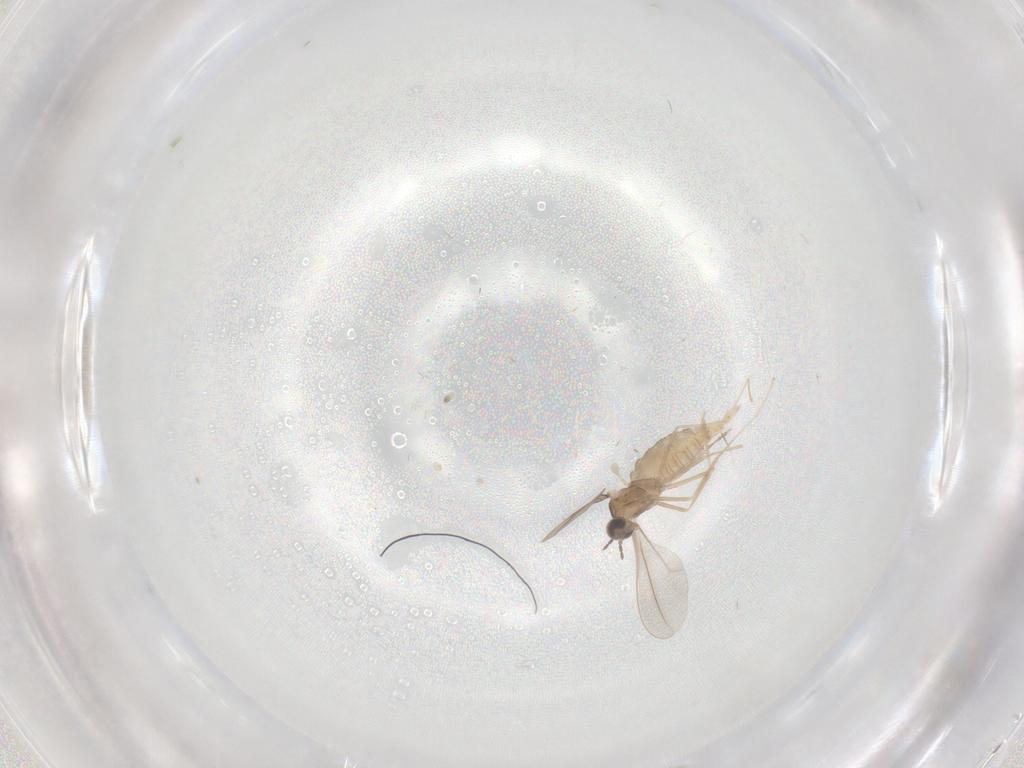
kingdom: Animalia
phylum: Arthropoda
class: Insecta
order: Diptera
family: Cecidomyiidae
